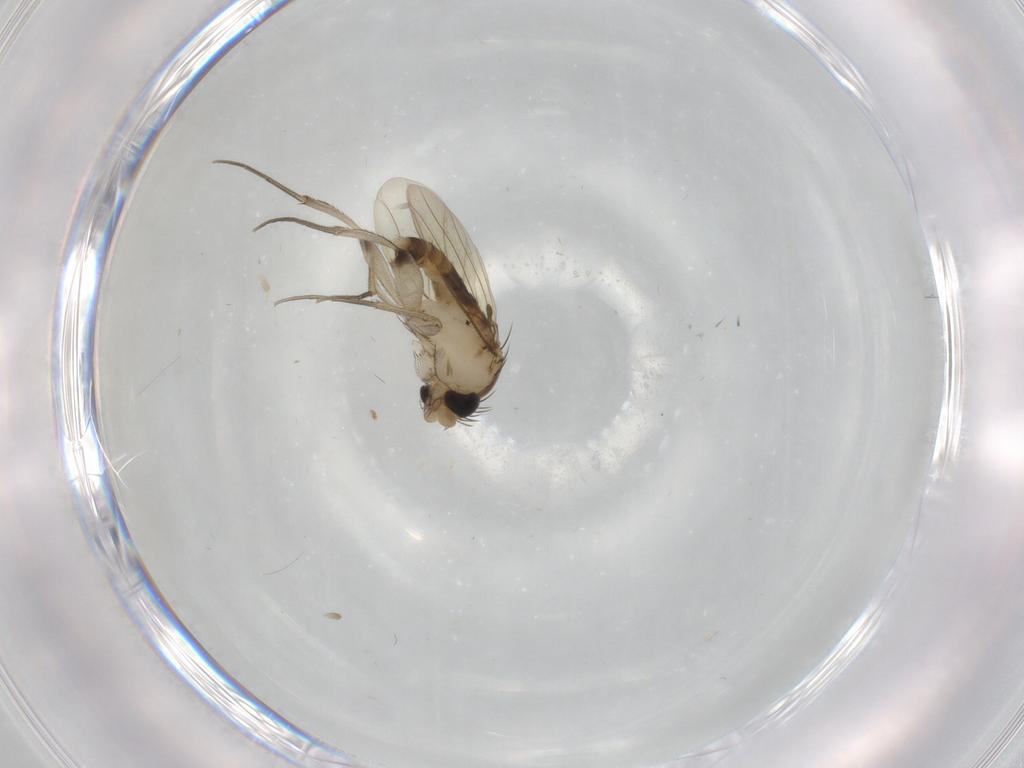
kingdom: Animalia
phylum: Arthropoda
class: Insecta
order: Diptera
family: Phoridae
